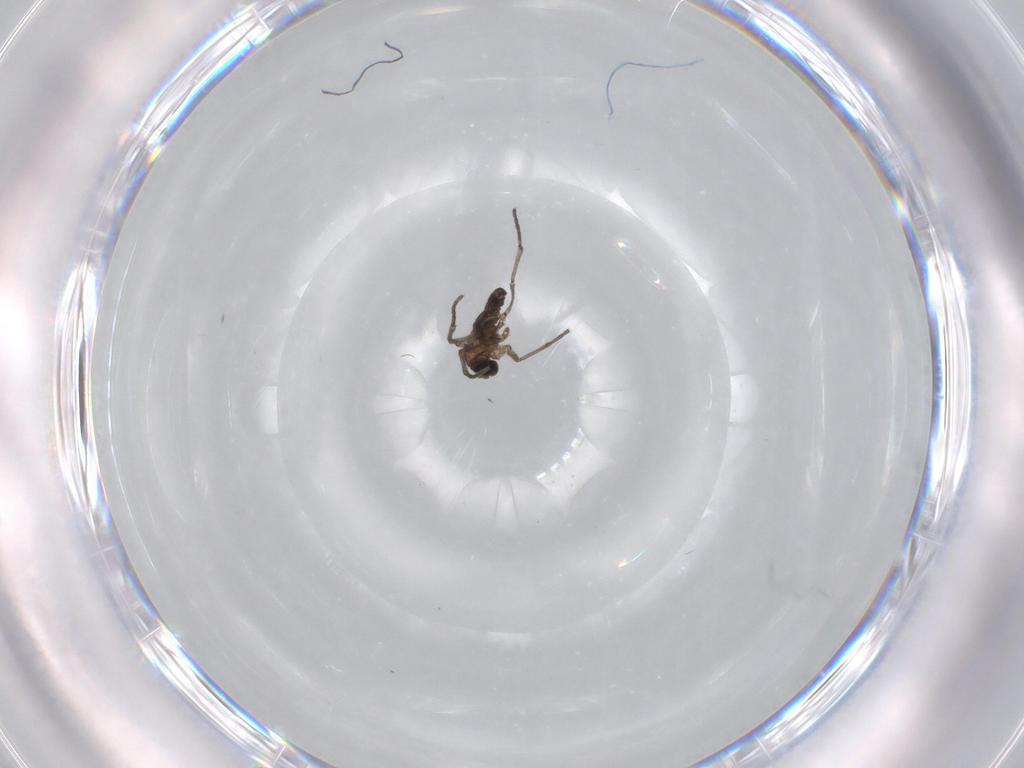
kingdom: Animalia
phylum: Arthropoda
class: Insecta
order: Diptera
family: Sciaridae
